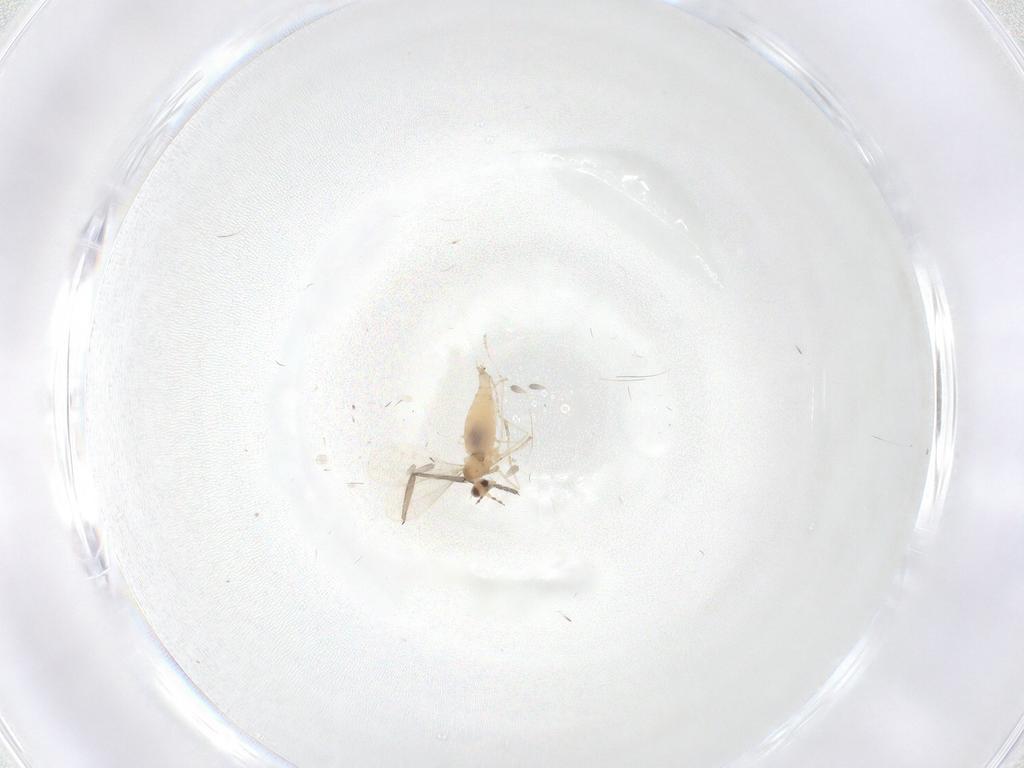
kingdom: Animalia
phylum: Arthropoda
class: Insecta
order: Diptera
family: Cecidomyiidae
